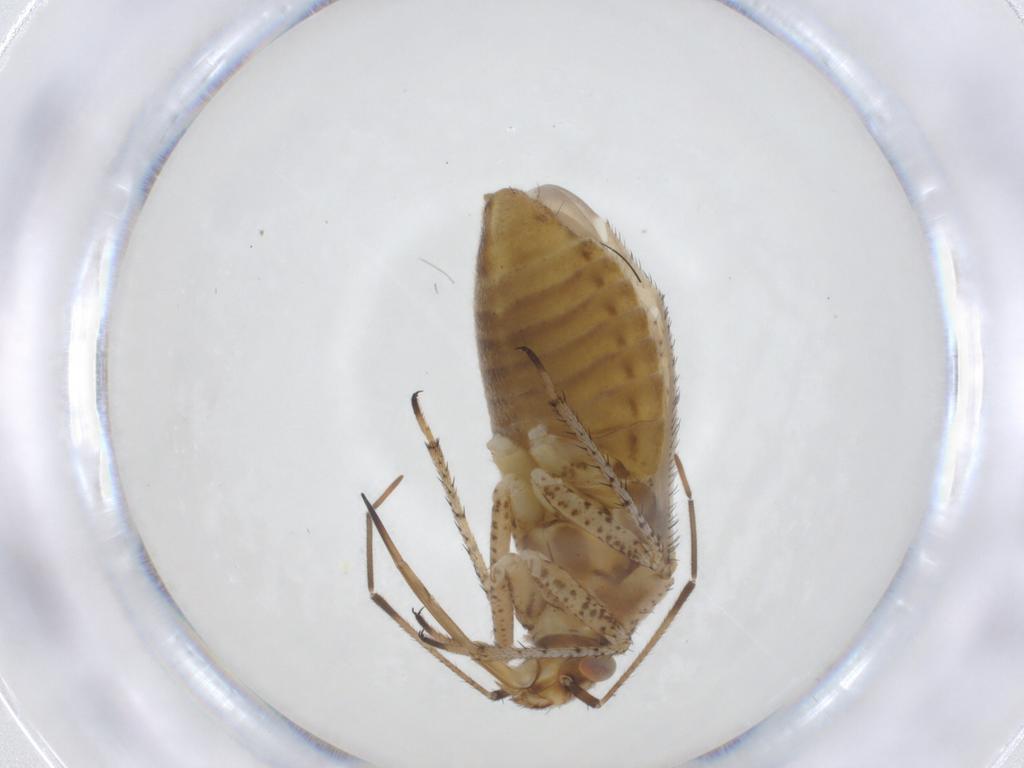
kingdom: Animalia
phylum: Arthropoda
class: Insecta
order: Hemiptera
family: Miridae
